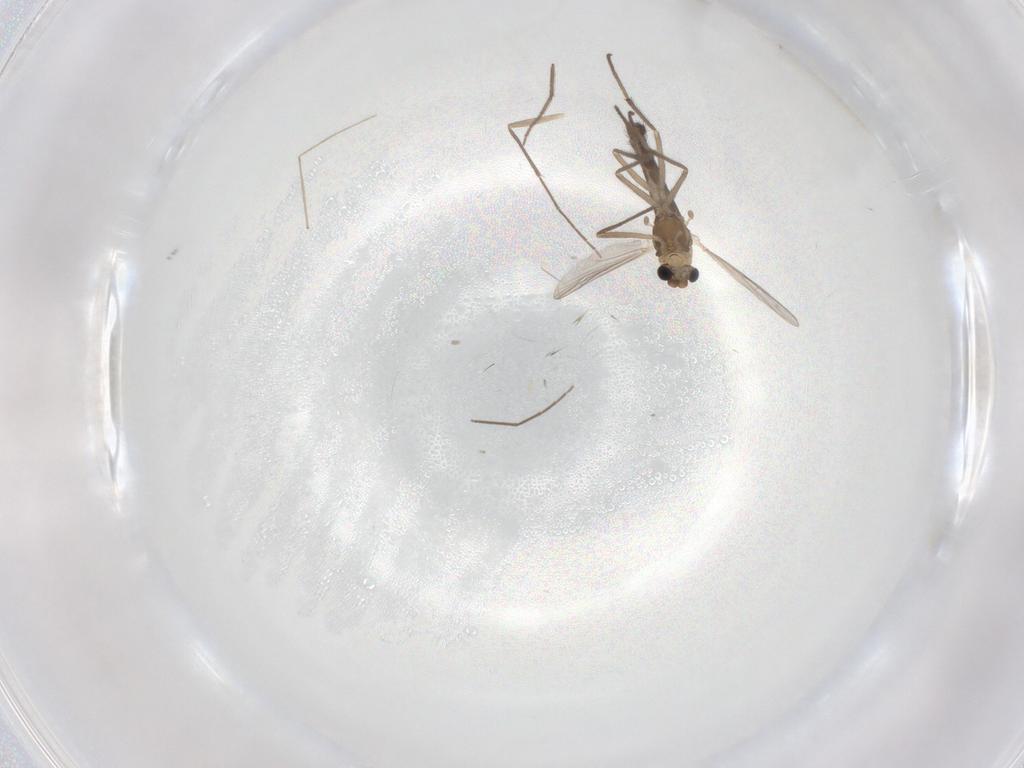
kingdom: Animalia
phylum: Arthropoda
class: Insecta
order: Diptera
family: Chironomidae
